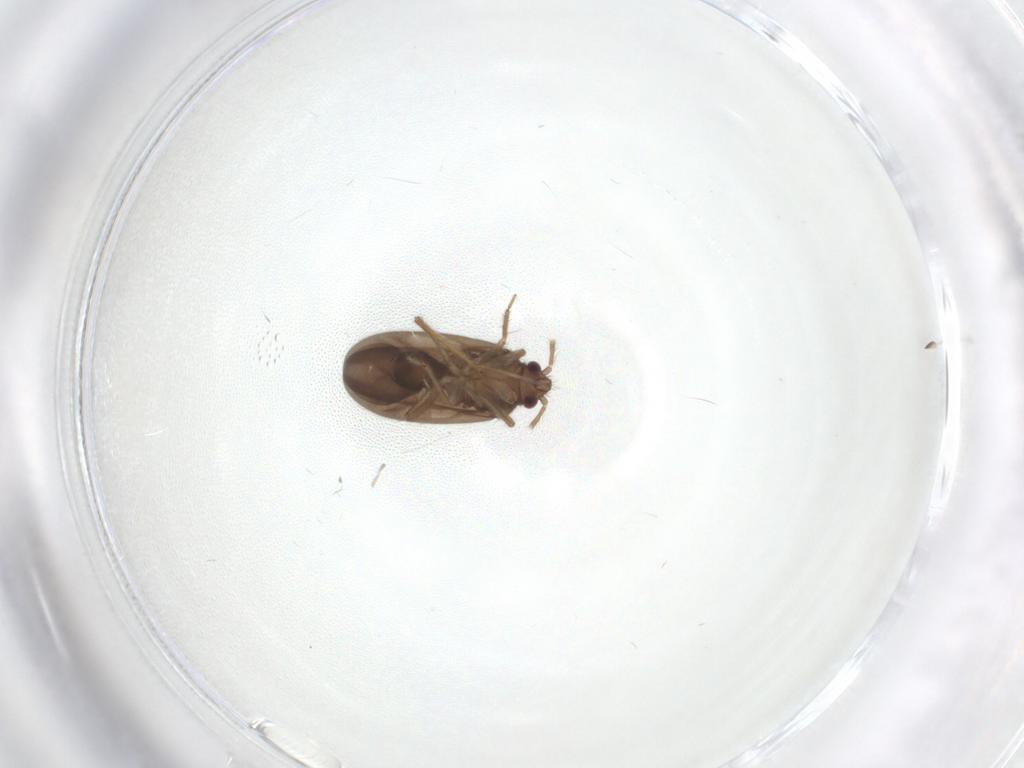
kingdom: Animalia
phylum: Arthropoda
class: Insecta
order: Hemiptera
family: Ceratocombidae
